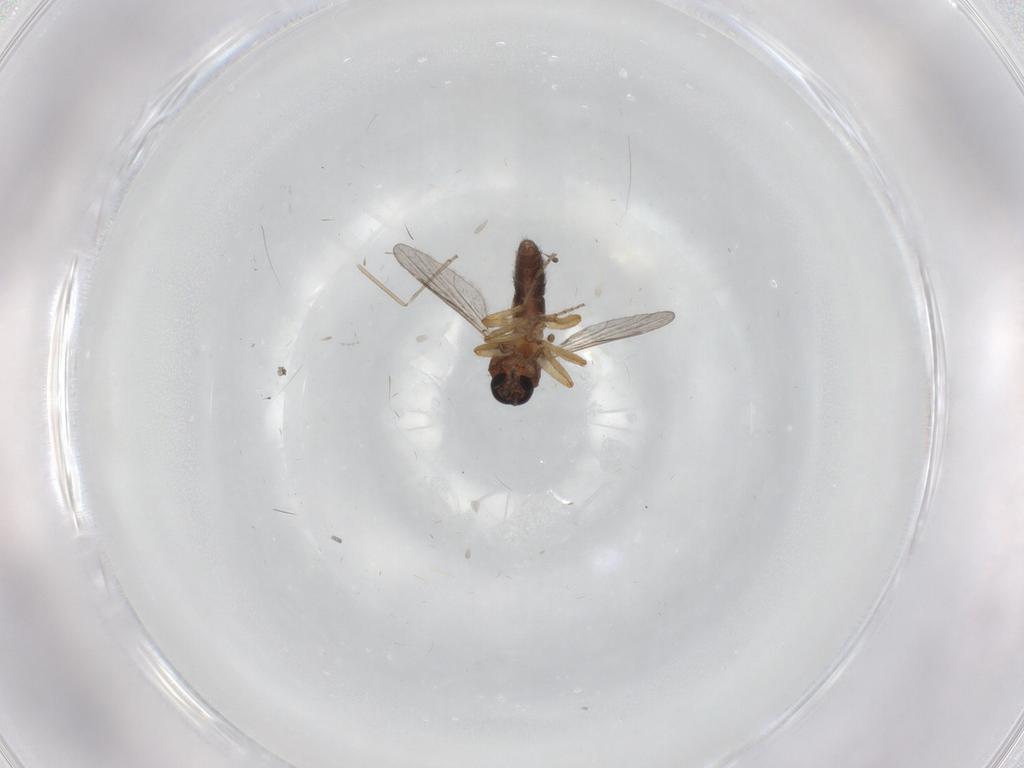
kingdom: Animalia
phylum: Arthropoda
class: Insecta
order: Diptera
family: Ceratopogonidae
